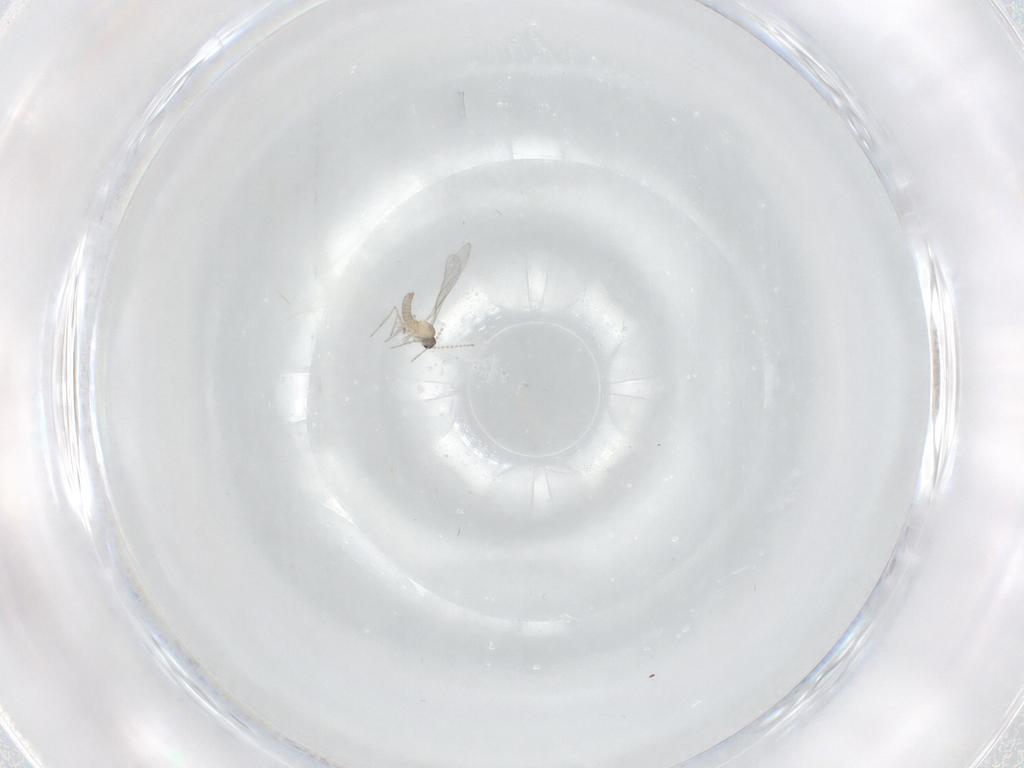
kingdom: Animalia
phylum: Arthropoda
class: Insecta
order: Diptera
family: Cecidomyiidae
